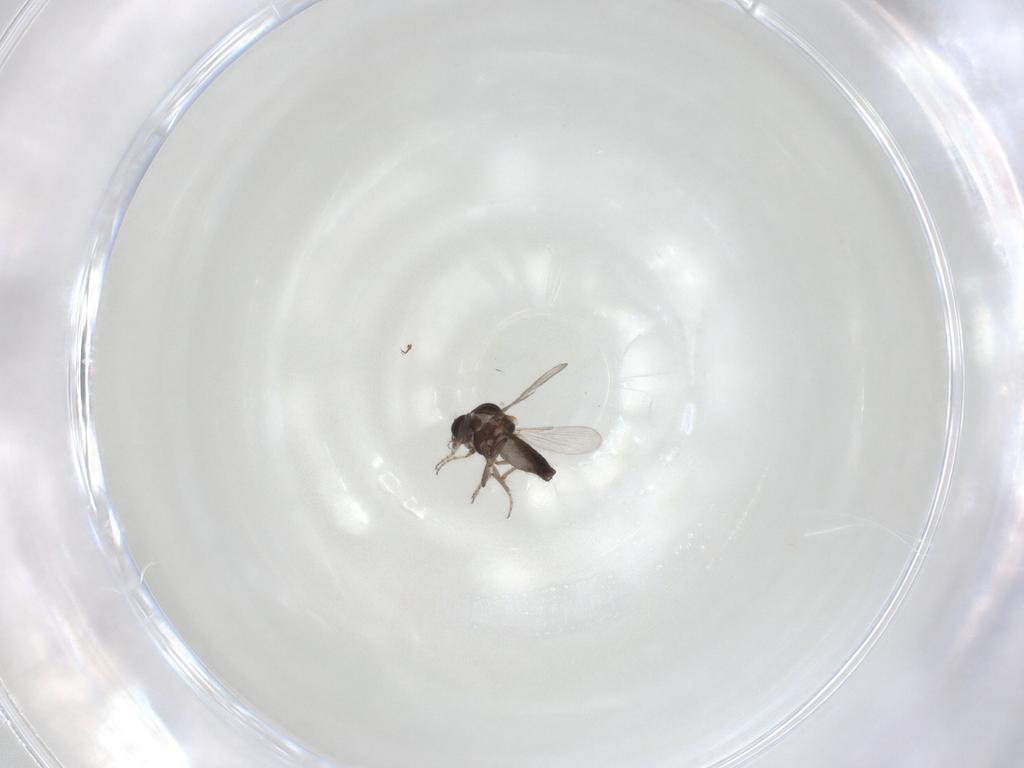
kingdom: Animalia
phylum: Arthropoda
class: Insecta
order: Diptera
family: Ceratopogonidae
